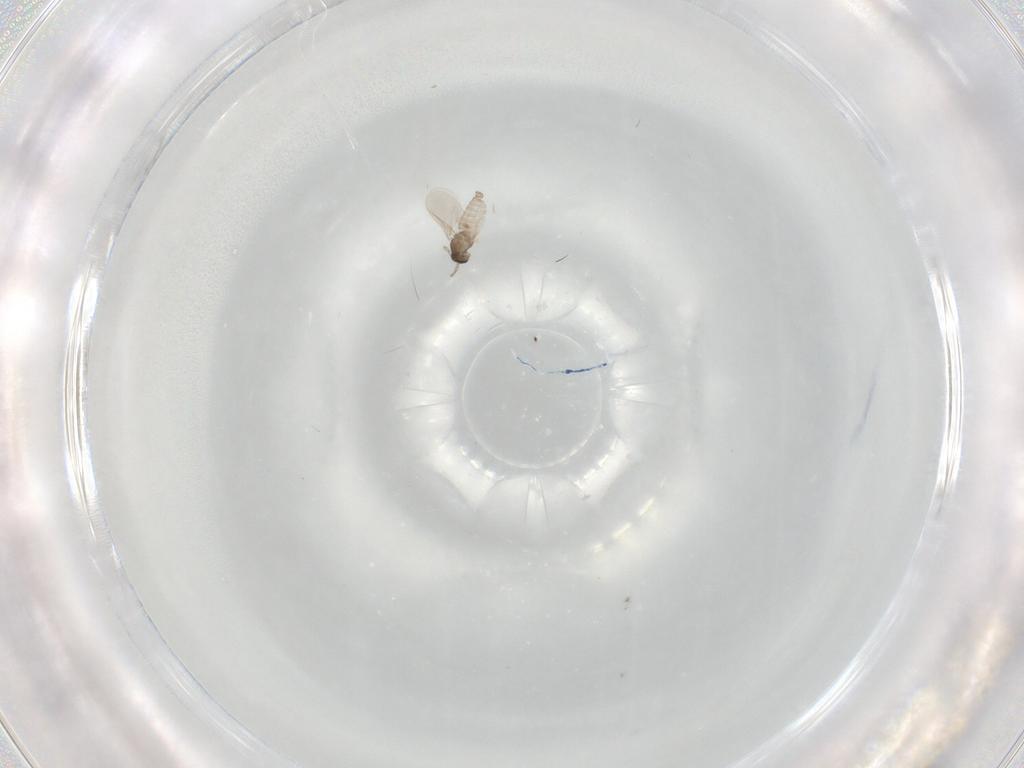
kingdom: Animalia
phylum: Arthropoda
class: Insecta
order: Diptera
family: Cecidomyiidae
